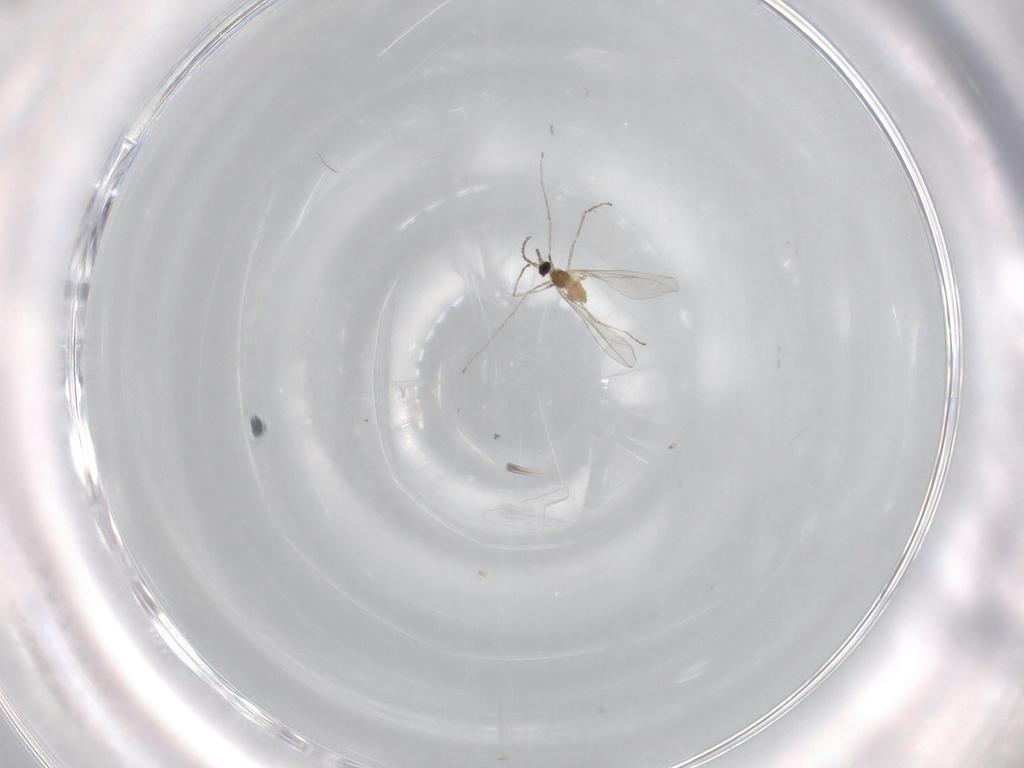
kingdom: Animalia
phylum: Arthropoda
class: Insecta
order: Diptera
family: Cecidomyiidae
